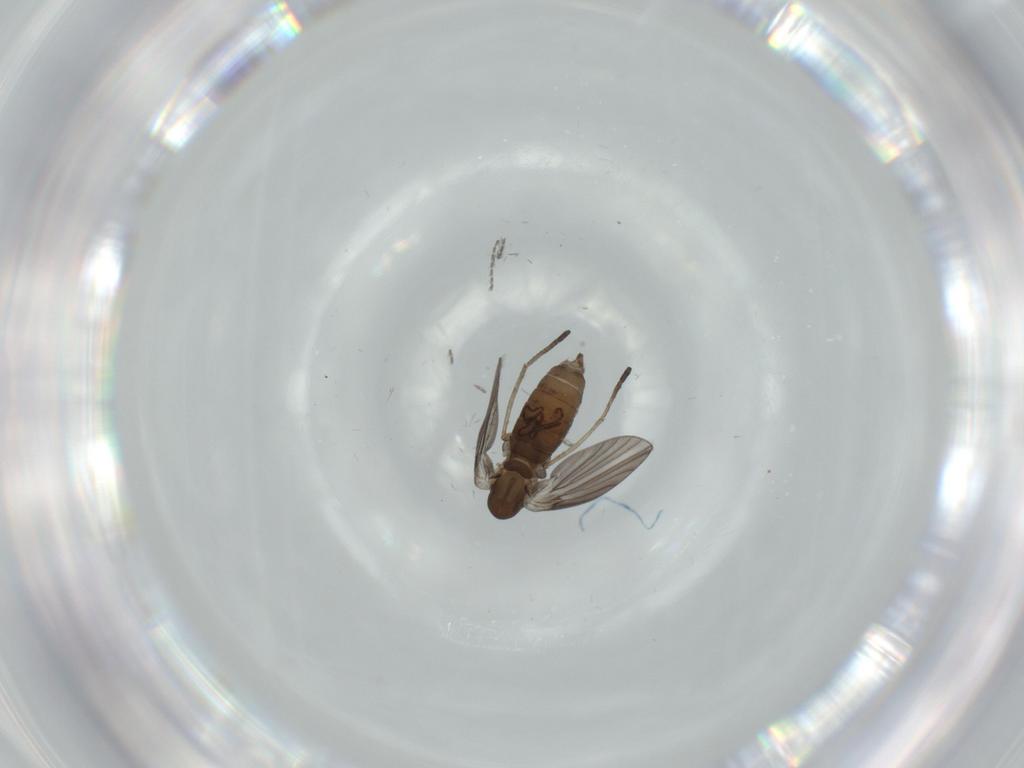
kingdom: Animalia
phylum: Arthropoda
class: Insecta
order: Diptera
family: Psychodidae
